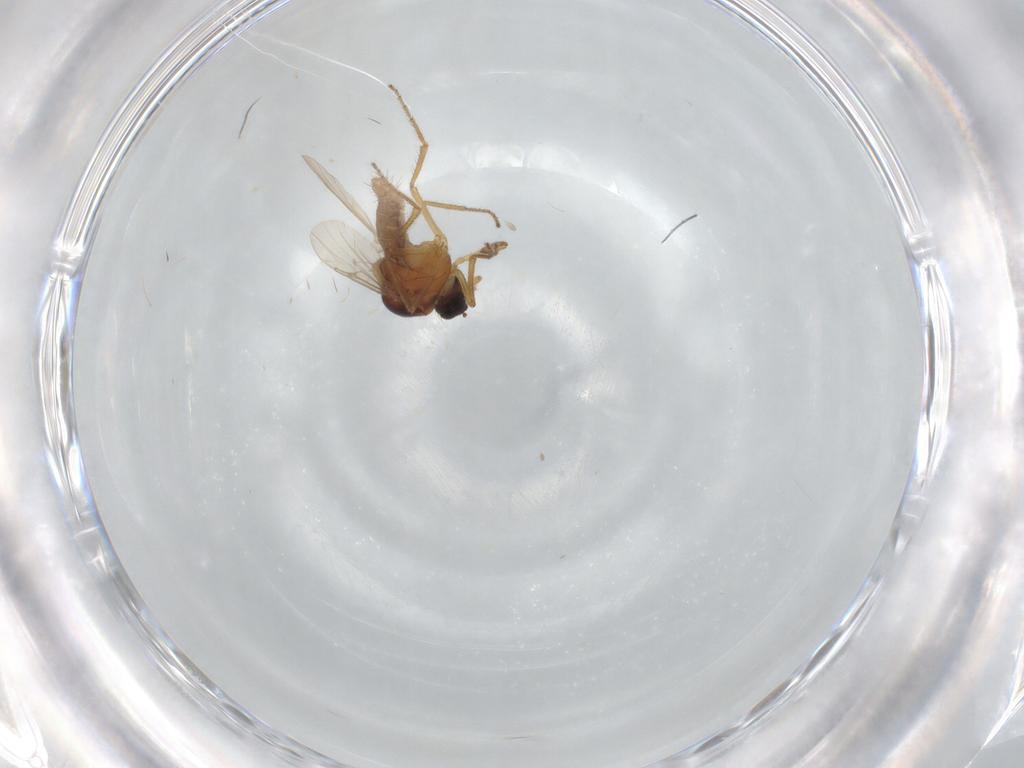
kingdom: Animalia
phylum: Arthropoda
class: Insecta
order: Diptera
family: Ceratopogonidae
